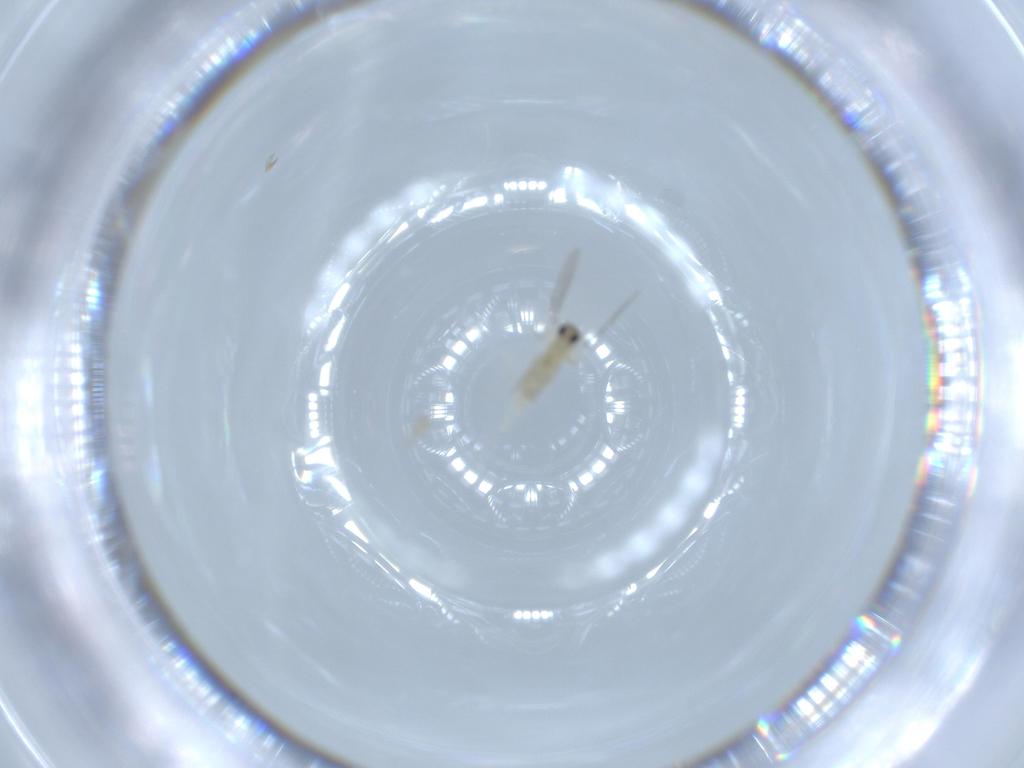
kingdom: Animalia
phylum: Arthropoda
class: Insecta
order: Diptera
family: Cecidomyiidae
